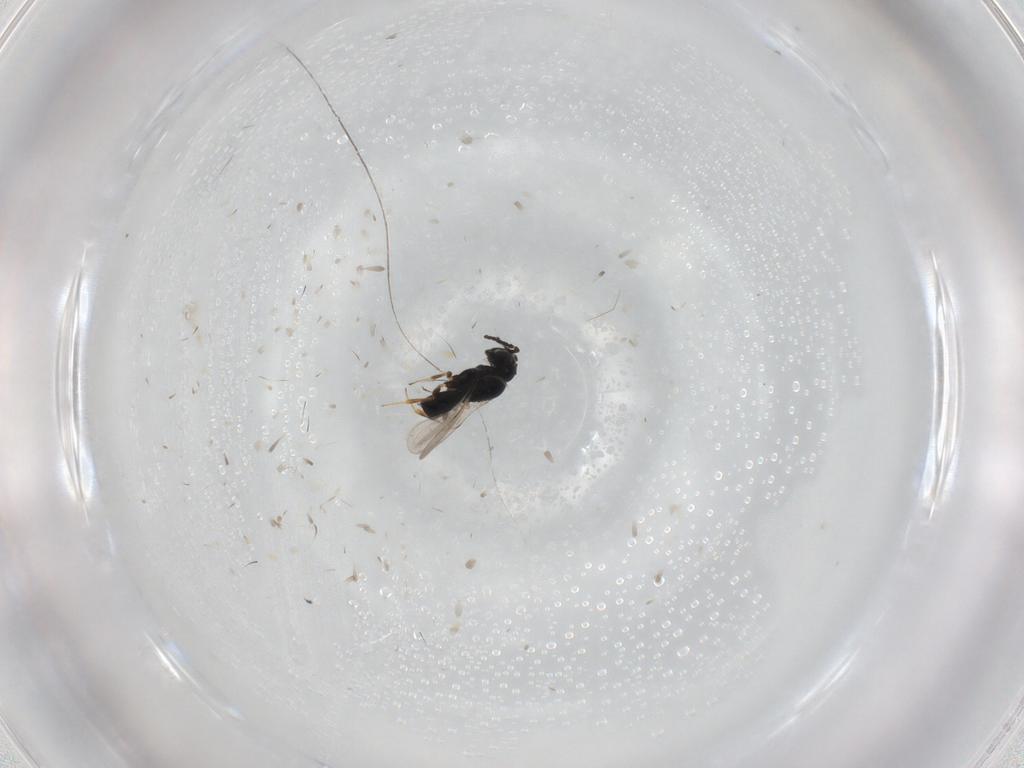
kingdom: Animalia
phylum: Arthropoda
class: Insecta
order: Hymenoptera
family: Scelionidae
